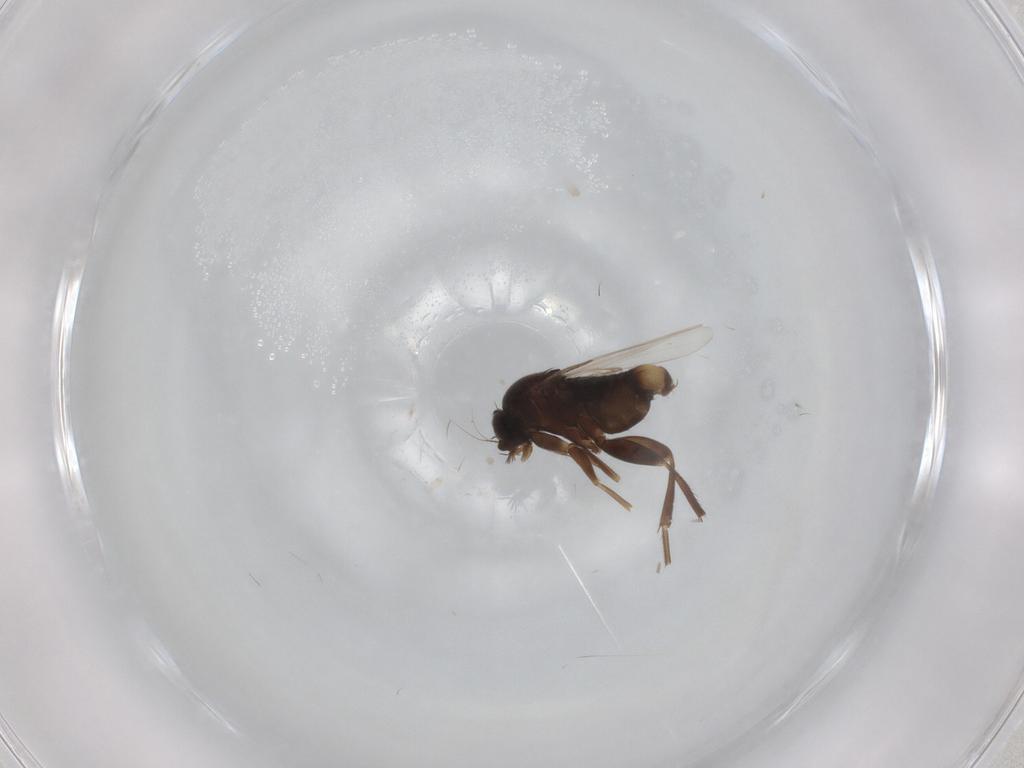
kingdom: Animalia
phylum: Arthropoda
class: Insecta
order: Diptera
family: Phoridae
